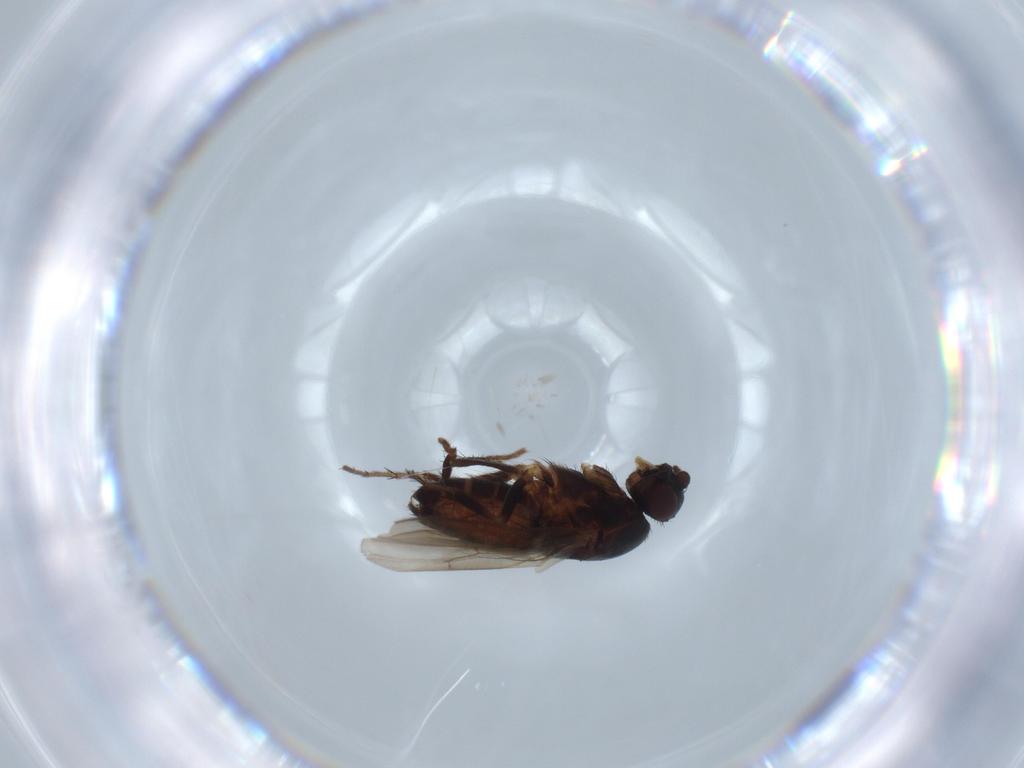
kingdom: Animalia
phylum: Arthropoda
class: Insecta
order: Diptera
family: Sphaeroceridae
